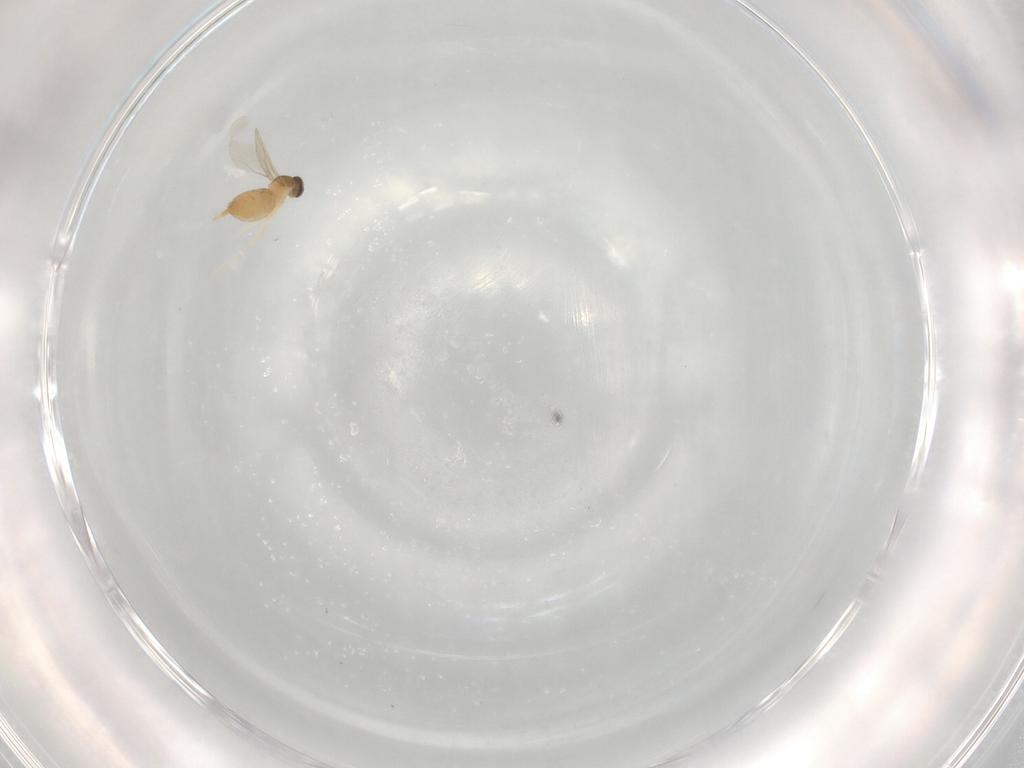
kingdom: Animalia
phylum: Arthropoda
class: Insecta
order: Diptera
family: Cecidomyiidae
